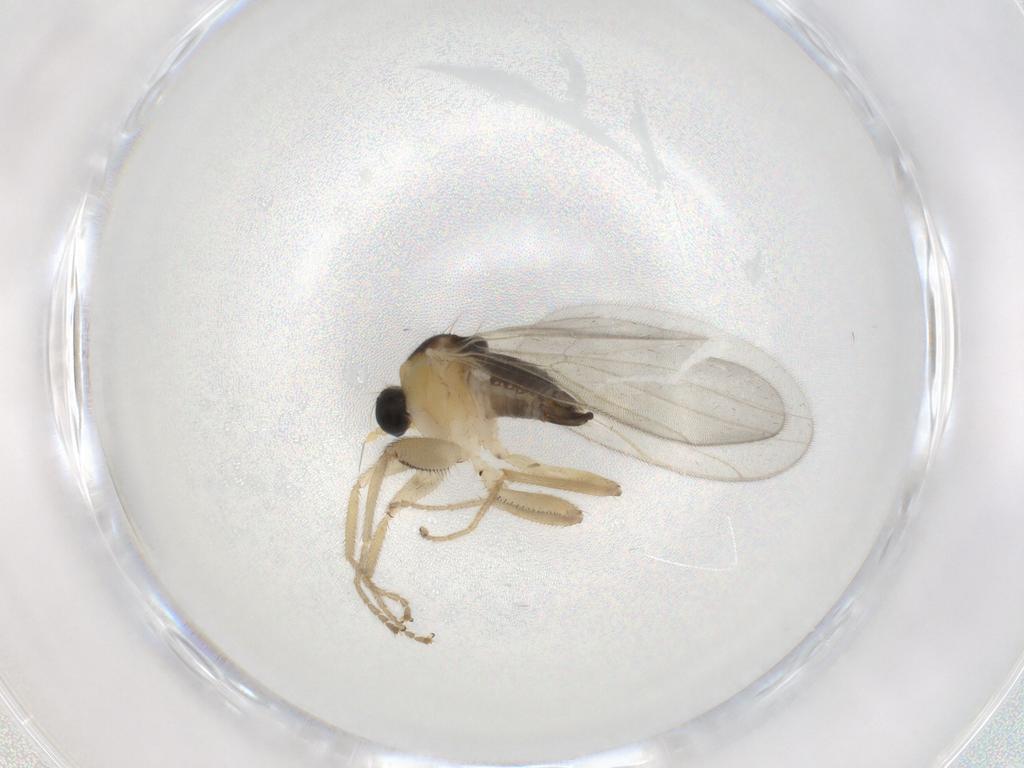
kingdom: Animalia
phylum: Arthropoda
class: Insecta
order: Diptera
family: Hybotidae
